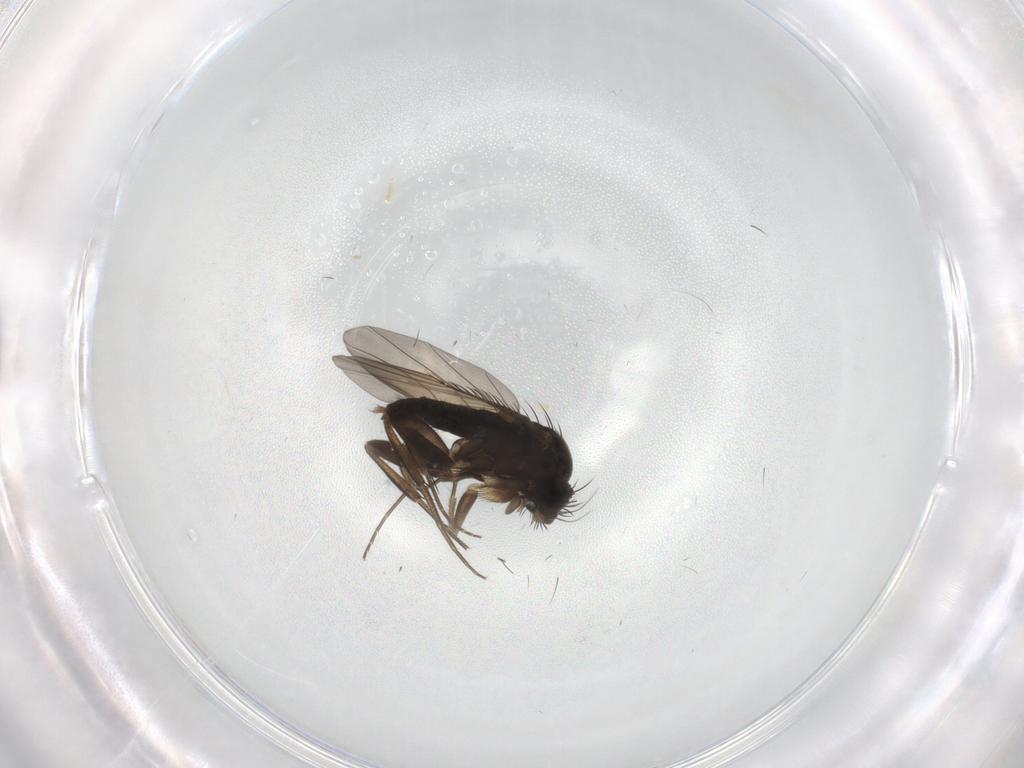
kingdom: Animalia
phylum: Arthropoda
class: Insecta
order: Diptera
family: Phoridae
